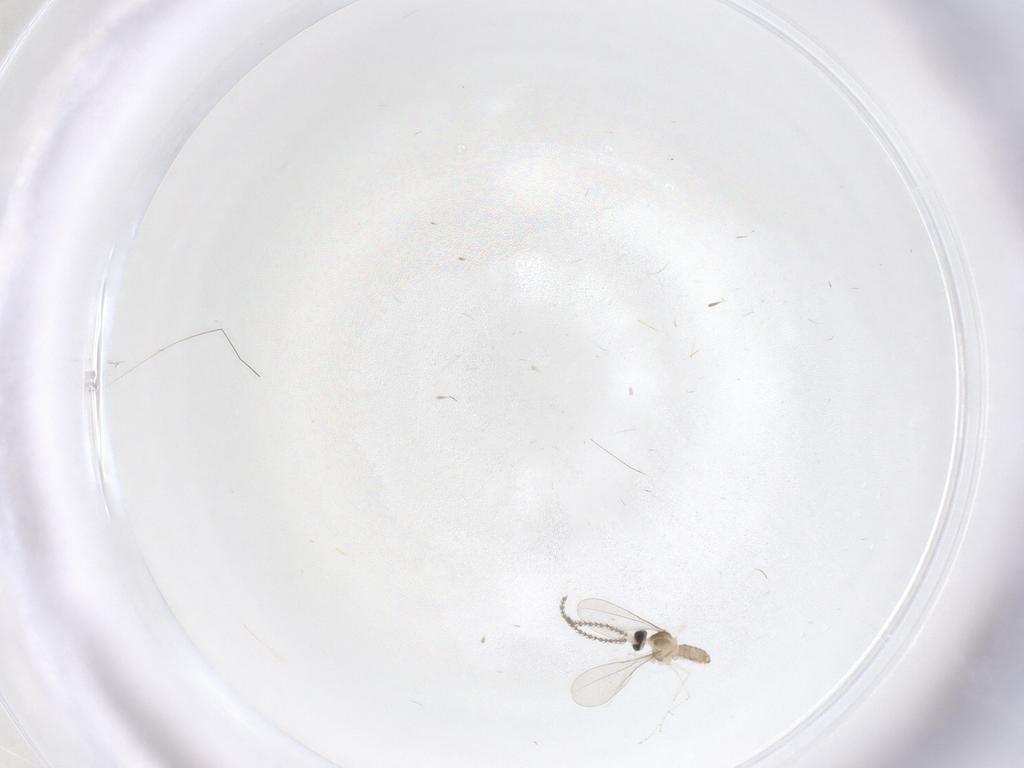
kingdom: Animalia
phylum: Arthropoda
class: Insecta
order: Diptera
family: Cecidomyiidae
